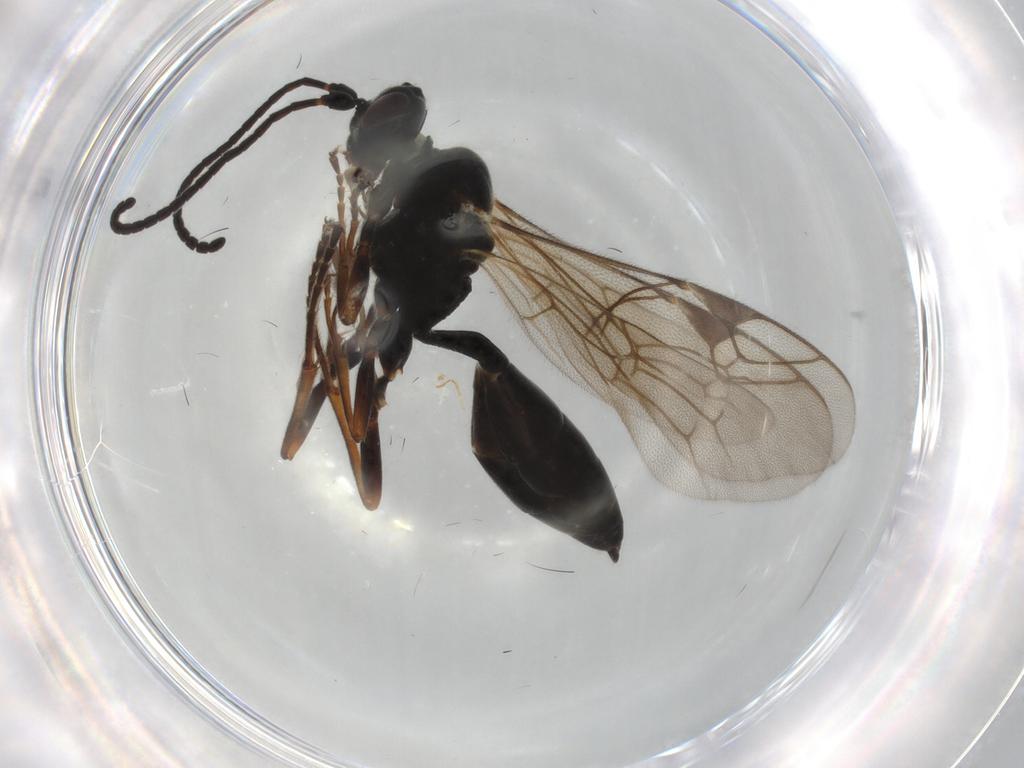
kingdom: Animalia
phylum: Arthropoda
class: Insecta
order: Hymenoptera
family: Ichneumonidae
